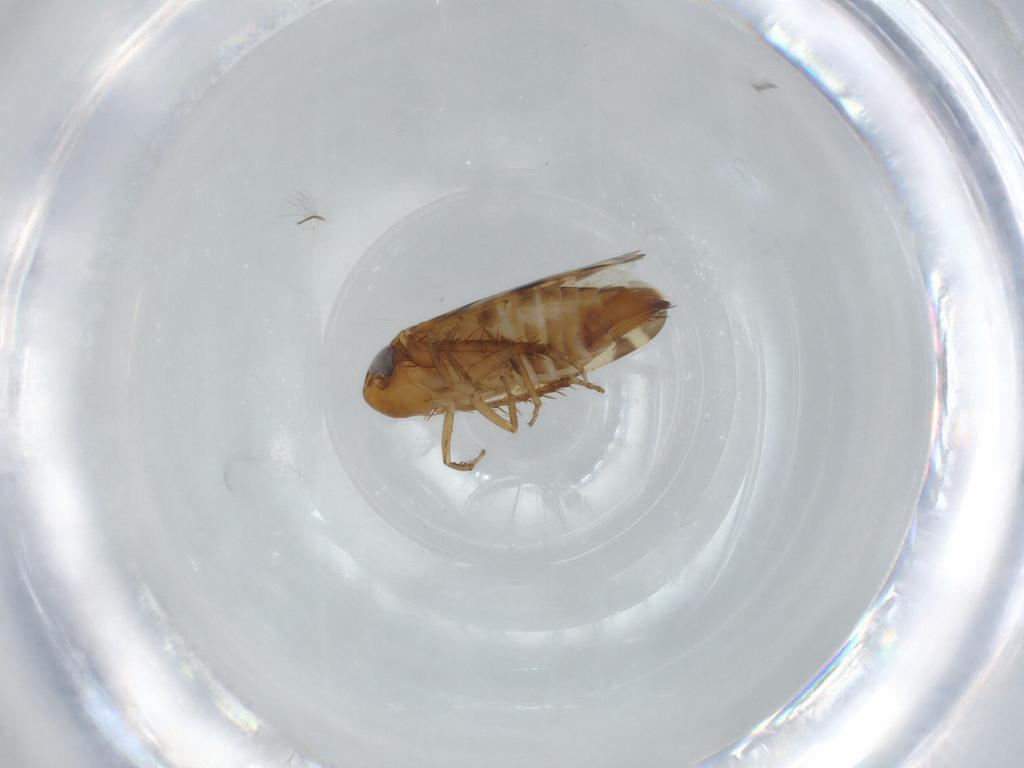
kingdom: Animalia
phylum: Arthropoda
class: Insecta
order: Hemiptera
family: Cicadellidae
